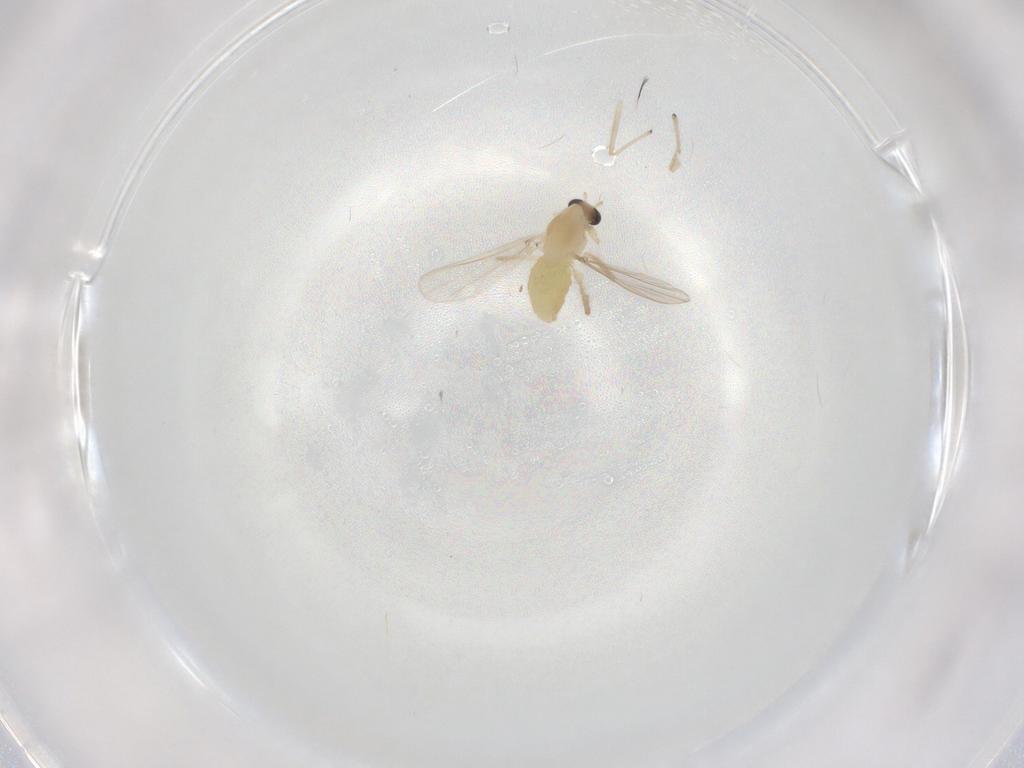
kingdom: Animalia
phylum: Arthropoda
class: Insecta
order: Diptera
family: Chironomidae
